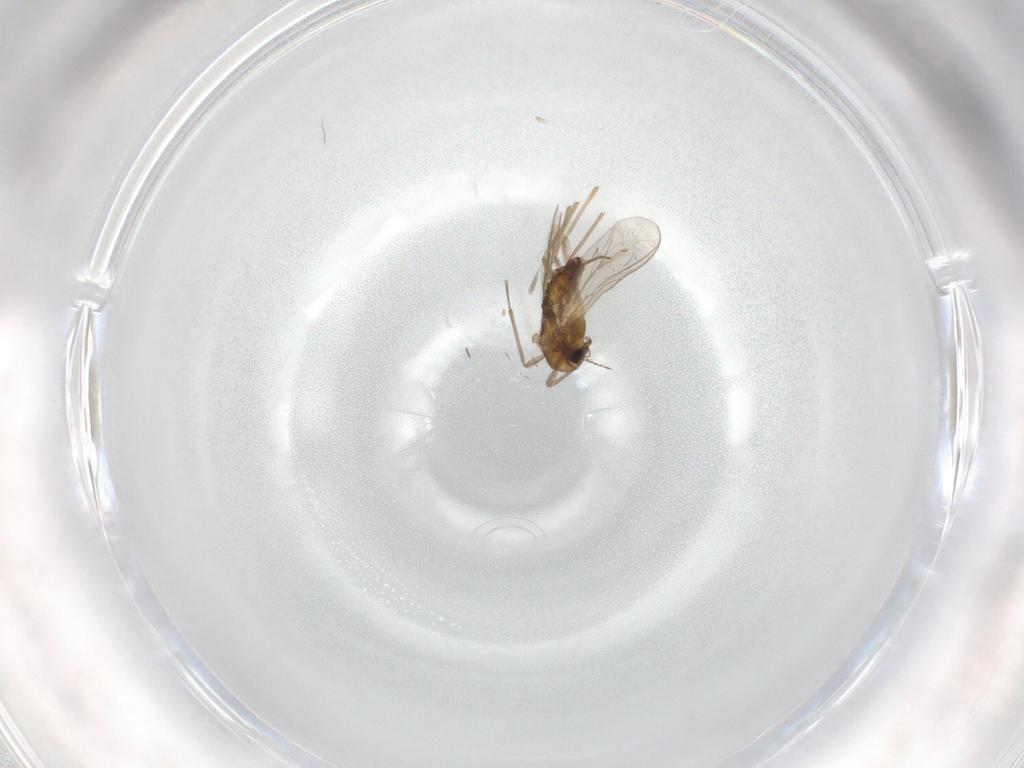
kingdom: Animalia
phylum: Arthropoda
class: Insecta
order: Diptera
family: Chironomidae
